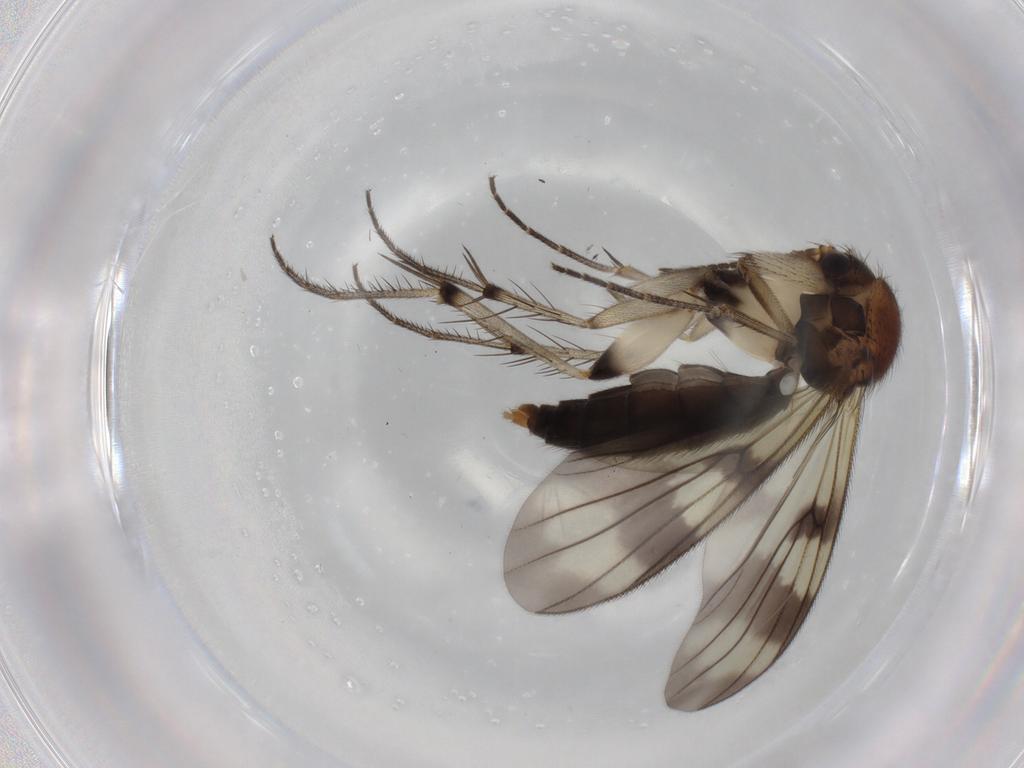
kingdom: Animalia
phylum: Arthropoda
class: Insecta
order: Diptera
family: Mycetophilidae
